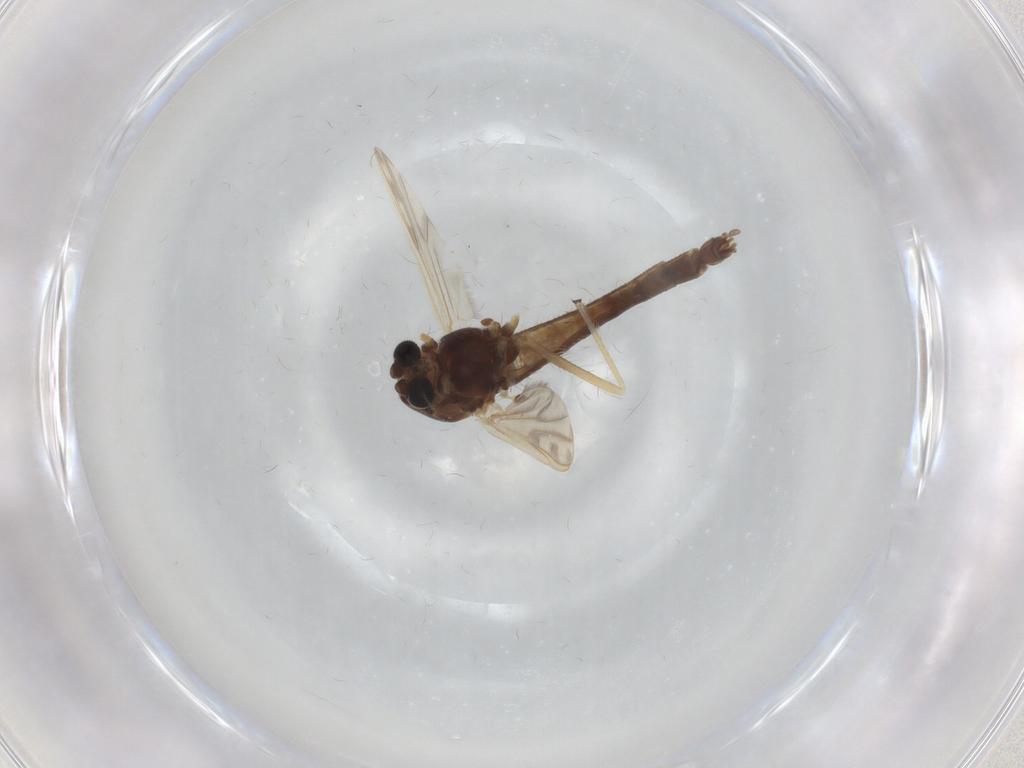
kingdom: Animalia
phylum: Arthropoda
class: Insecta
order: Diptera
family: Chironomidae
